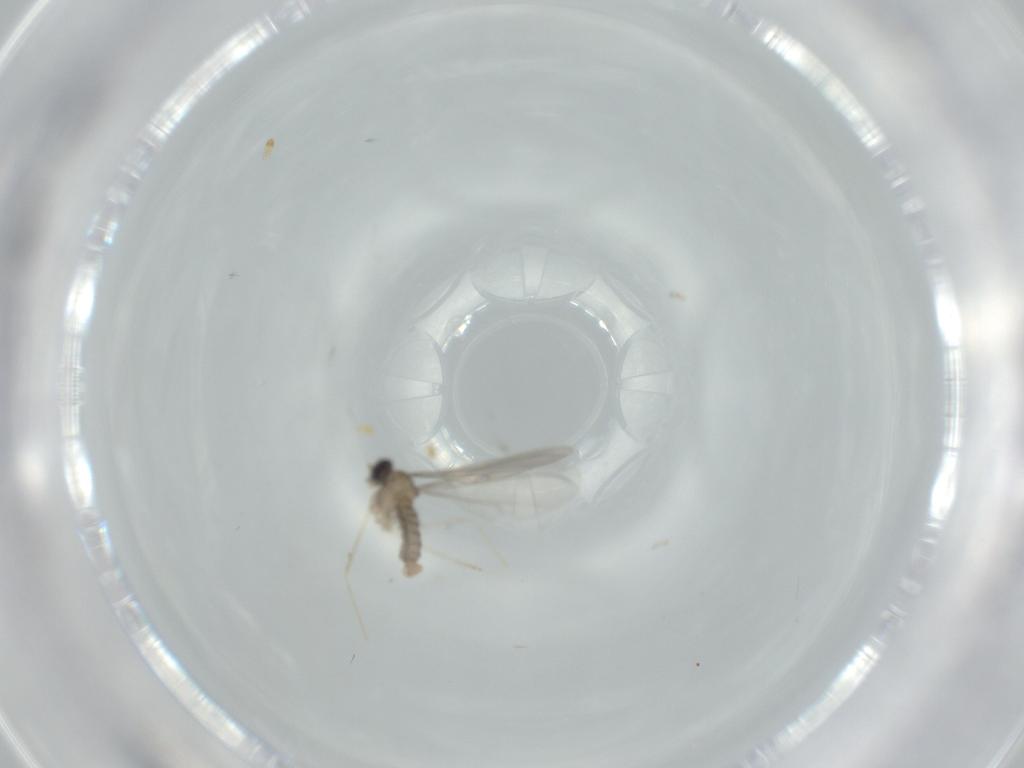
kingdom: Animalia
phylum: Arthropoda
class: Insecta
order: Diptera
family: Cecidomyiidae
